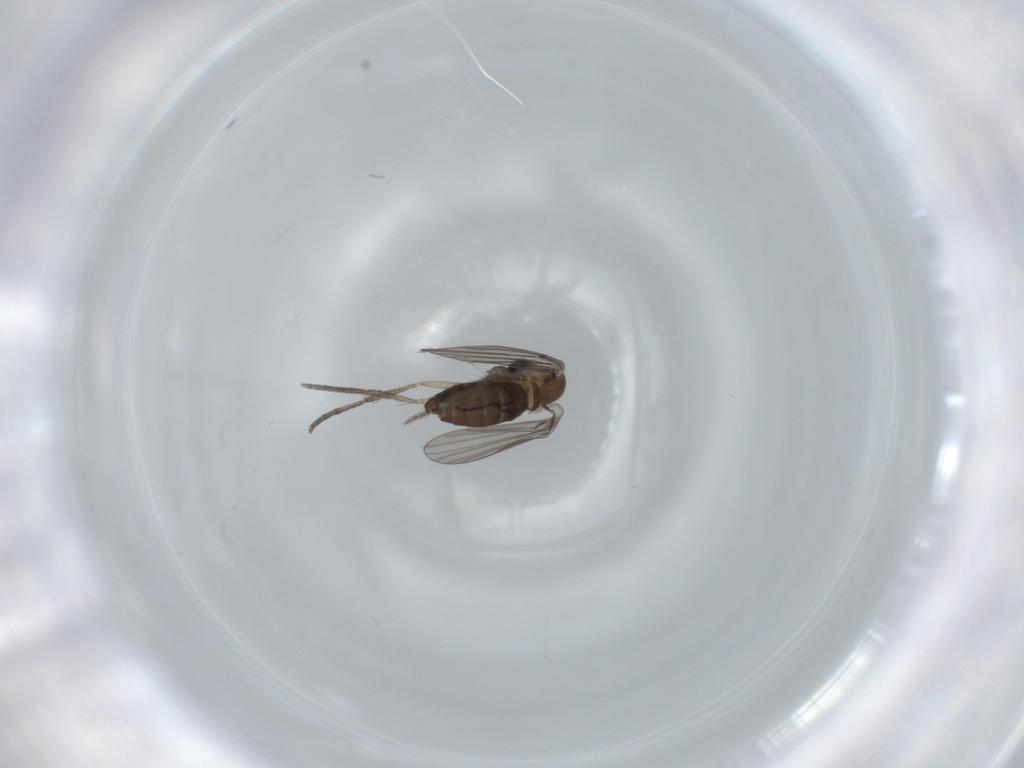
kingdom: Animalia
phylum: Arthropoda
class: Insecta
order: Diptera
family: Psychodidae
